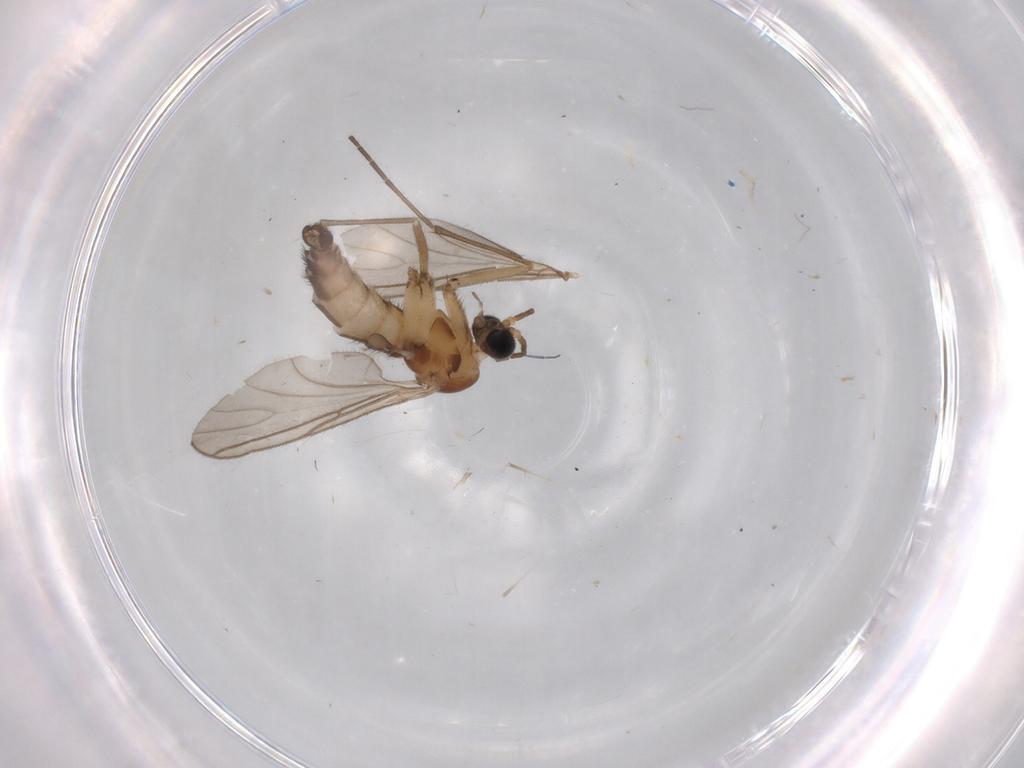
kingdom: Animalia
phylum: Arthropoda
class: Insecta
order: Diptera
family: Sciaridae
